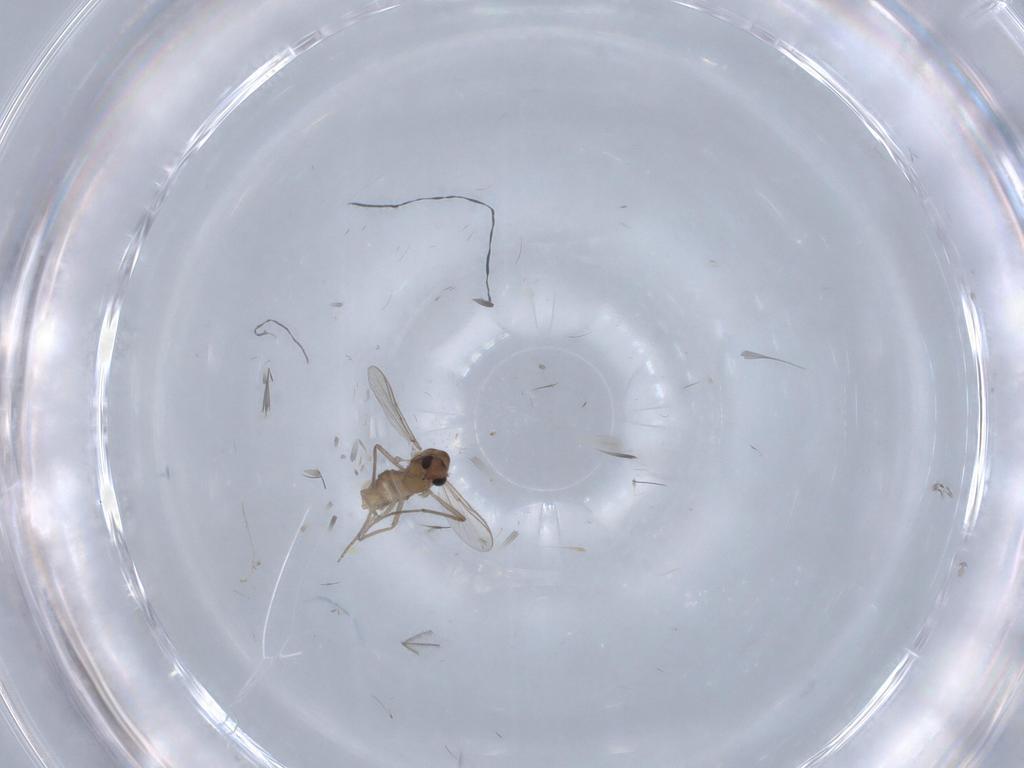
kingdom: Animalia
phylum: Arthropoda
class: Insecta
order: Diptera
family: Chironomidae
